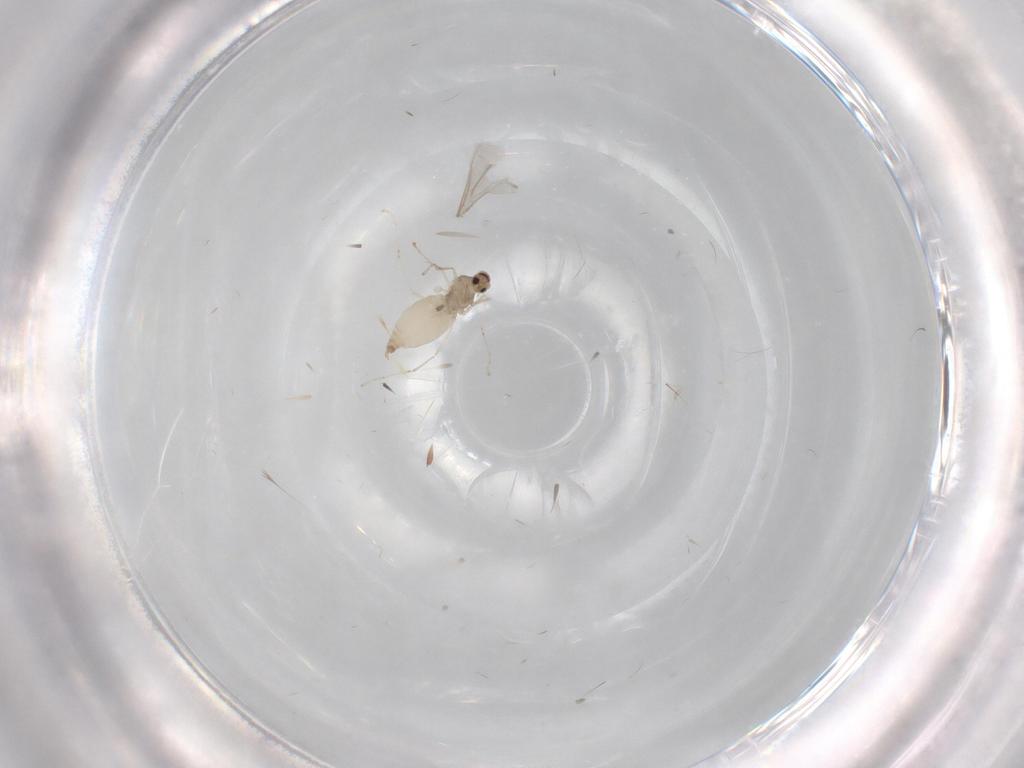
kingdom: Animalia
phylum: Arthropoda
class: Insecta
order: Diptera
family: Cecidomyiidae
